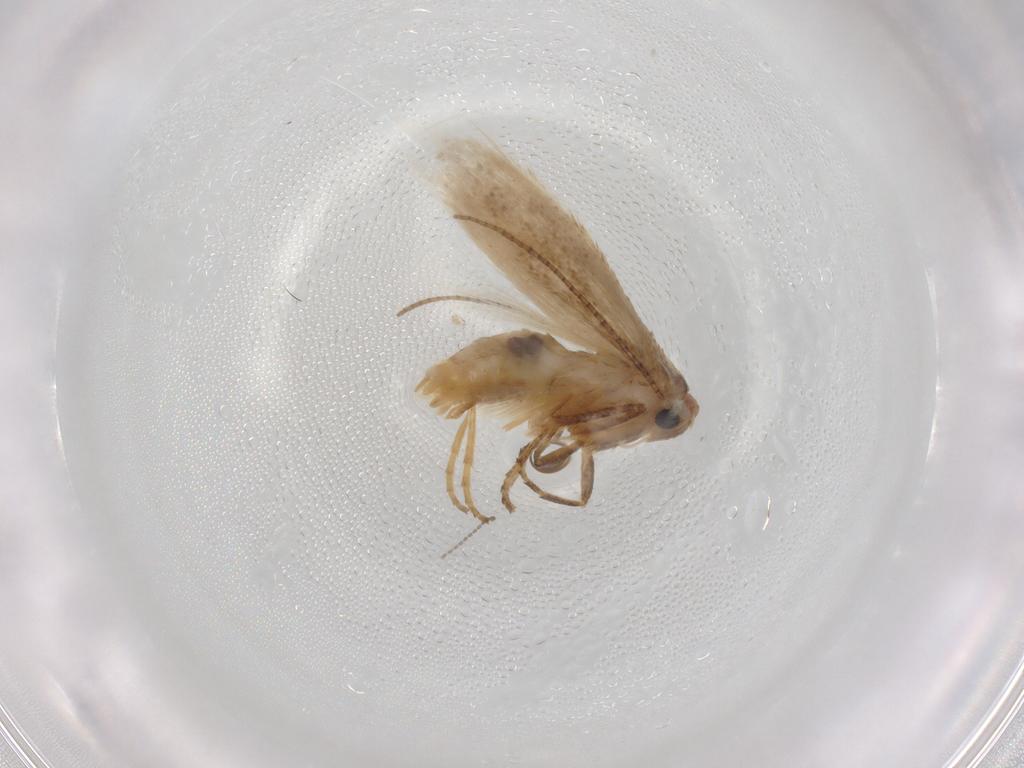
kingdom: Animalia
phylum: Arthropoda
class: Insecta
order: Lepidoptera
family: Bucculatricidae
